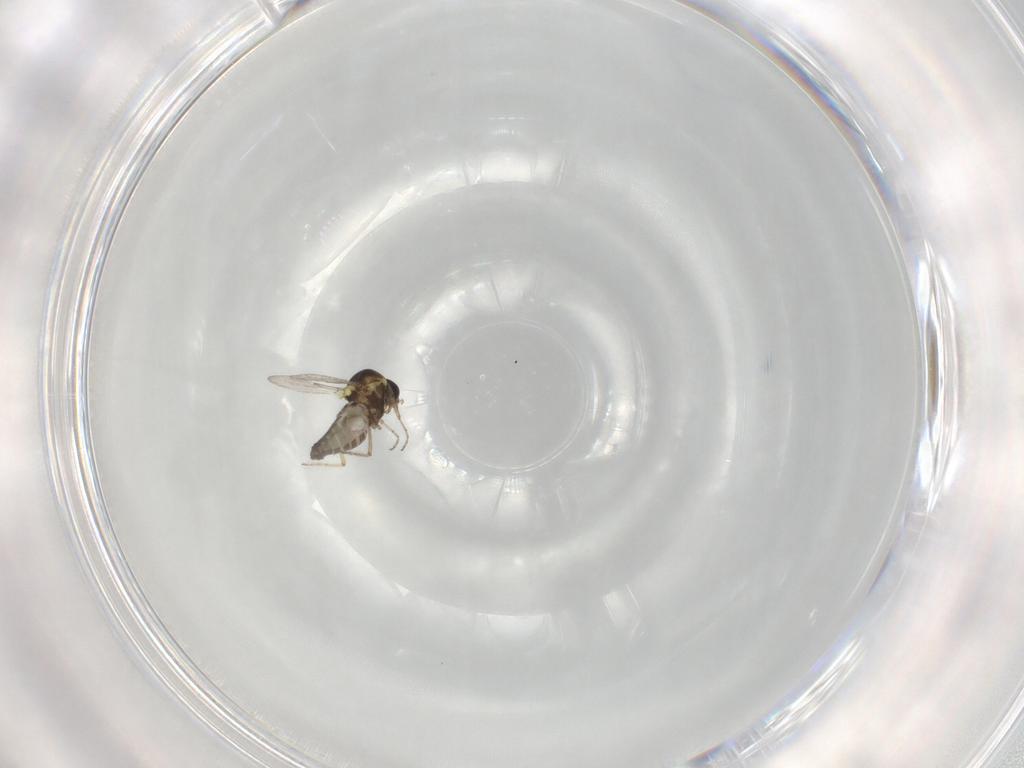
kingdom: Animalia
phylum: Arthropoda
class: Insecta
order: Diptera
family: Ceratopogonidae
